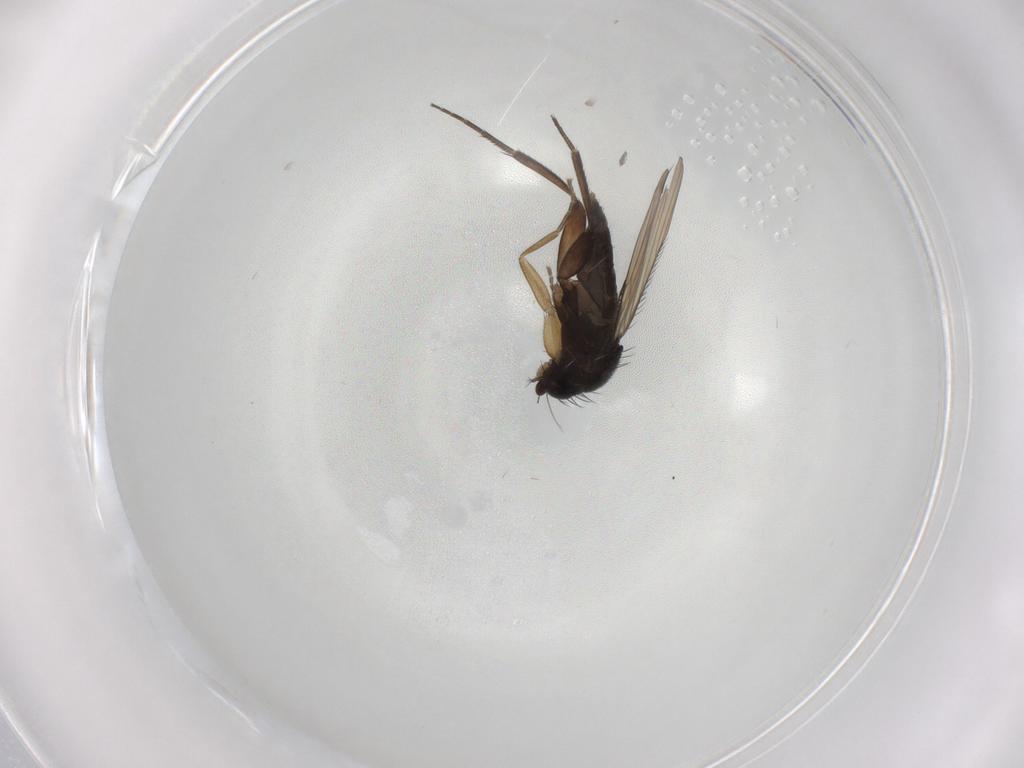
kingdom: Animalia
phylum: Arthropoda
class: Insecta
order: Diptera
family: Phoridae
